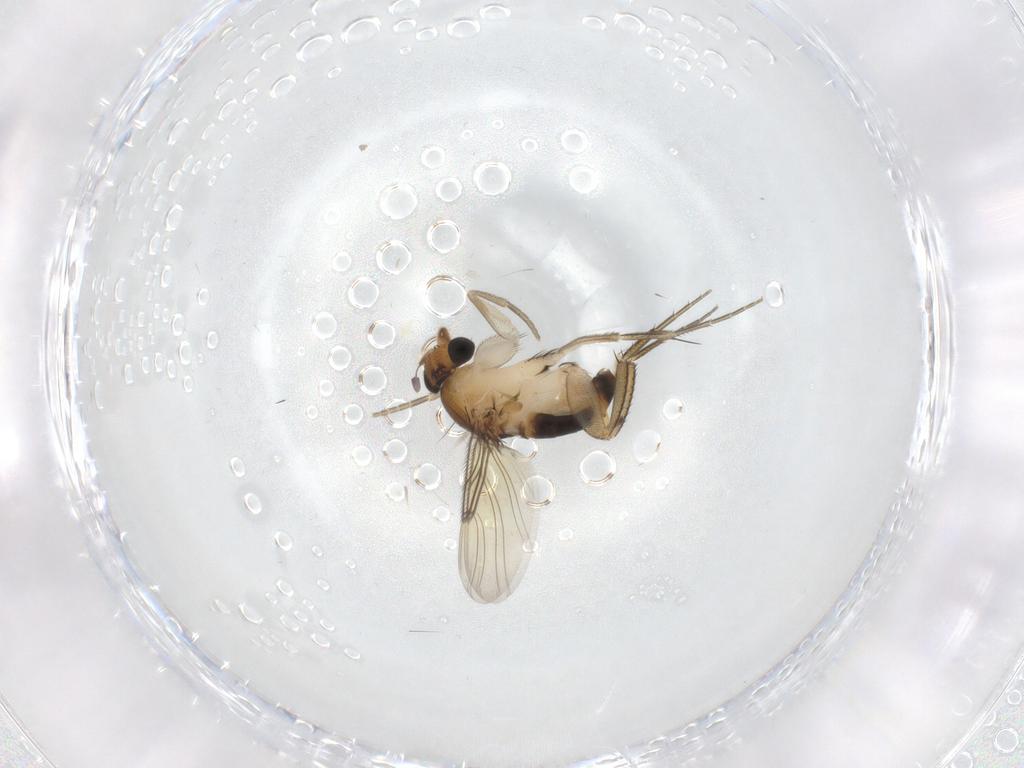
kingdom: Animalia
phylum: Arthropoda
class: Insecta
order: Diptera
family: Phoridae
